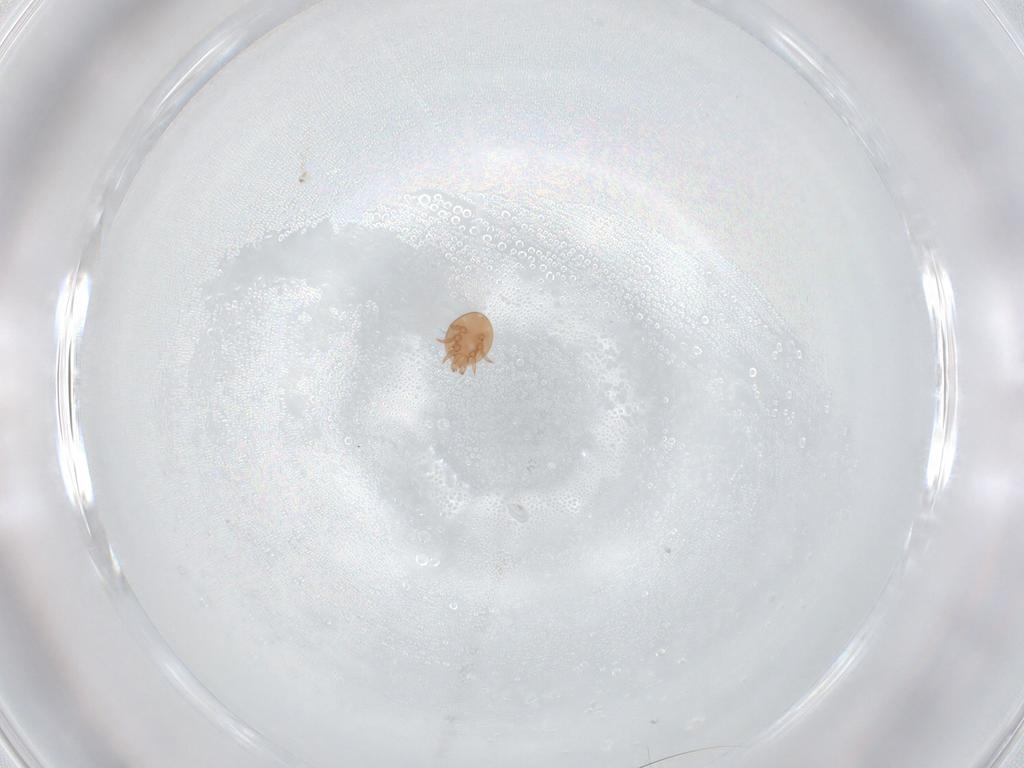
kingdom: Animalia
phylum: Arthropoda
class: Arachnida
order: Mesostigmata
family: Trematuridae
